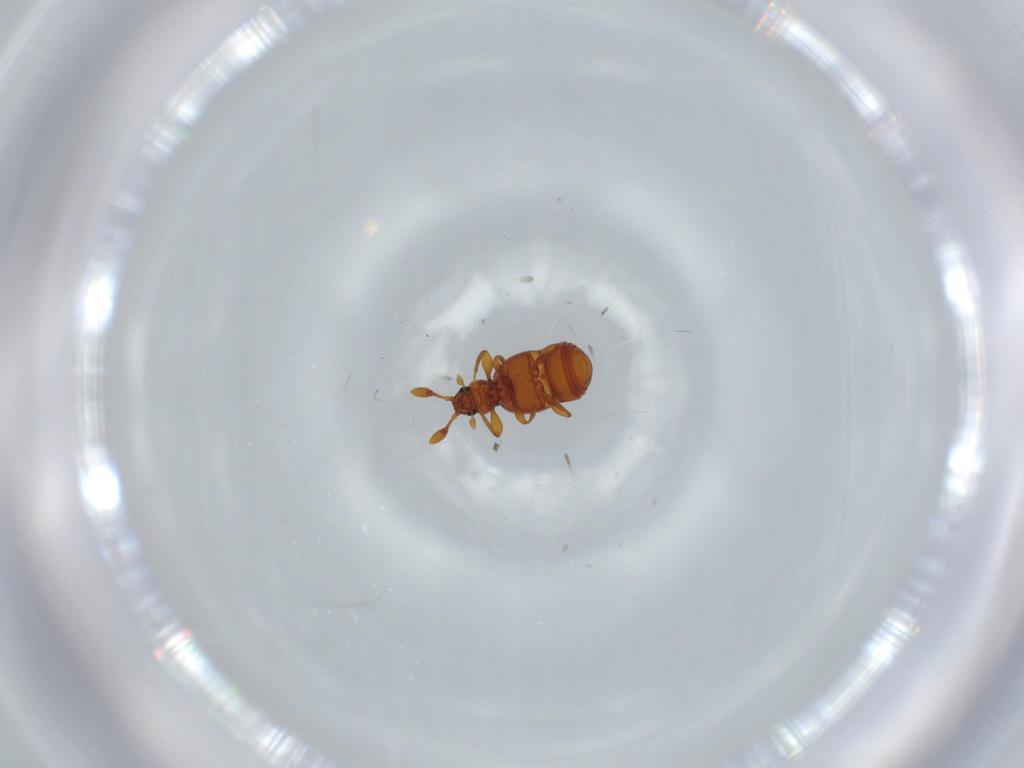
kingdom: Animalia
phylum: Arthropoda
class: Insecta
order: Coleoptera
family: Staphylinidae
